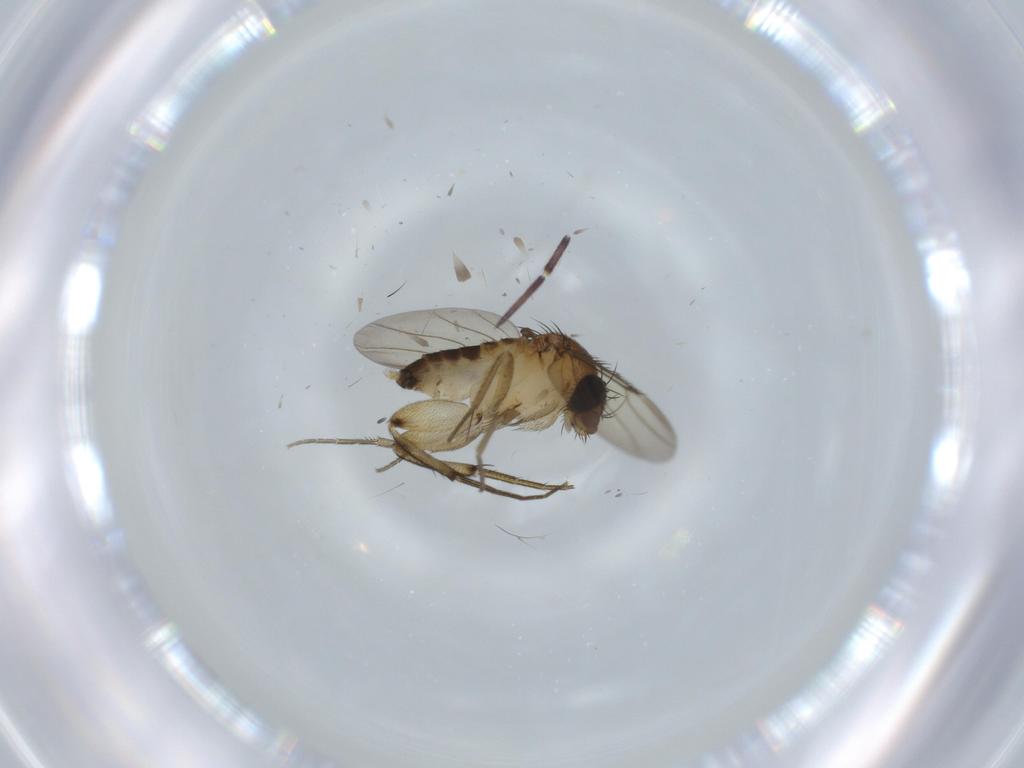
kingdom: Animalia
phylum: Arthropoda
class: Insecta
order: Diptera
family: Phoridae
